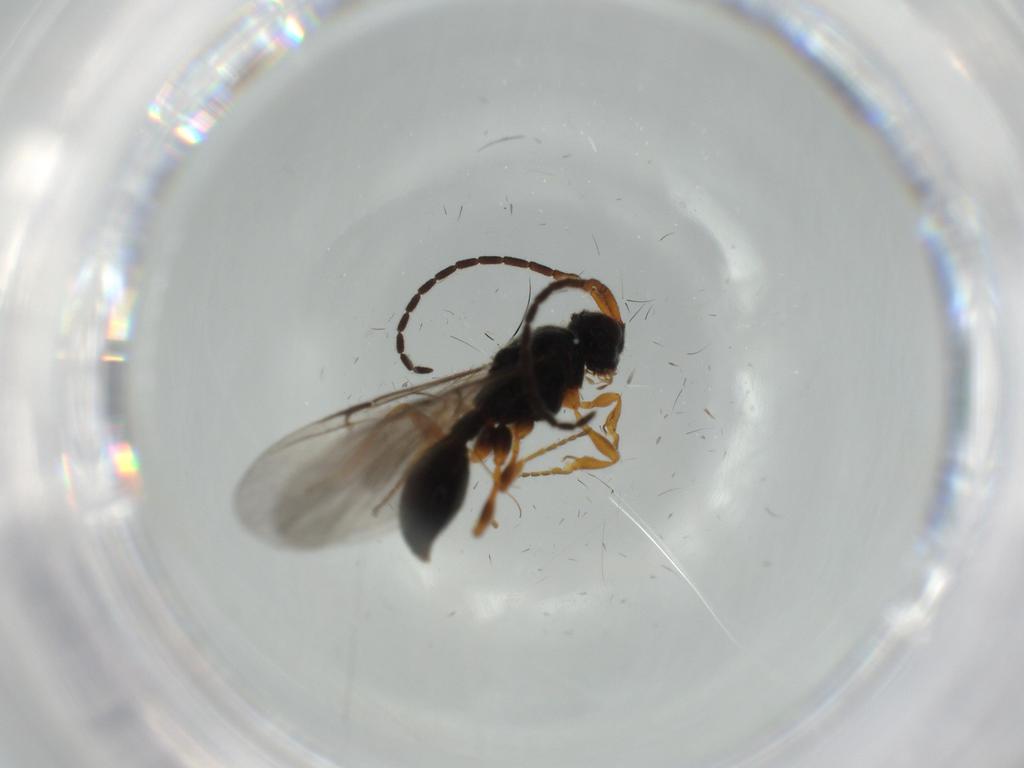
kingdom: Animalia
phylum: Arthropoda
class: Insecta
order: Hymenoptera
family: Braconidae
